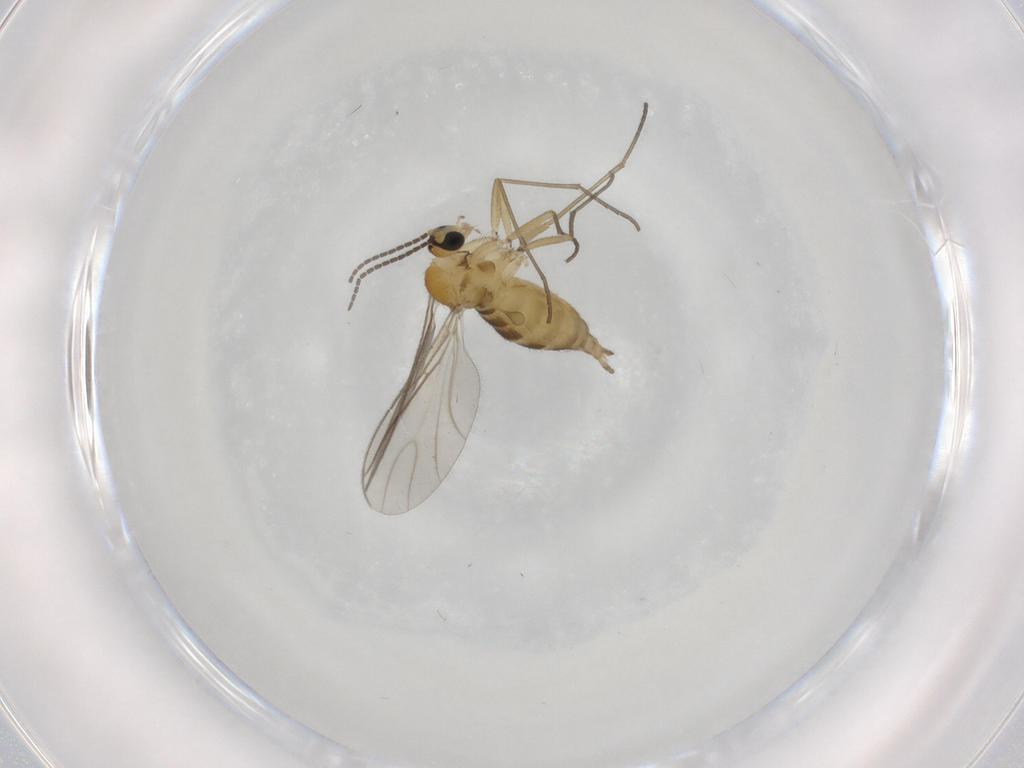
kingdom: Animalia
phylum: Arthropoda
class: Insecta
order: Diptera
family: Sciaridae
